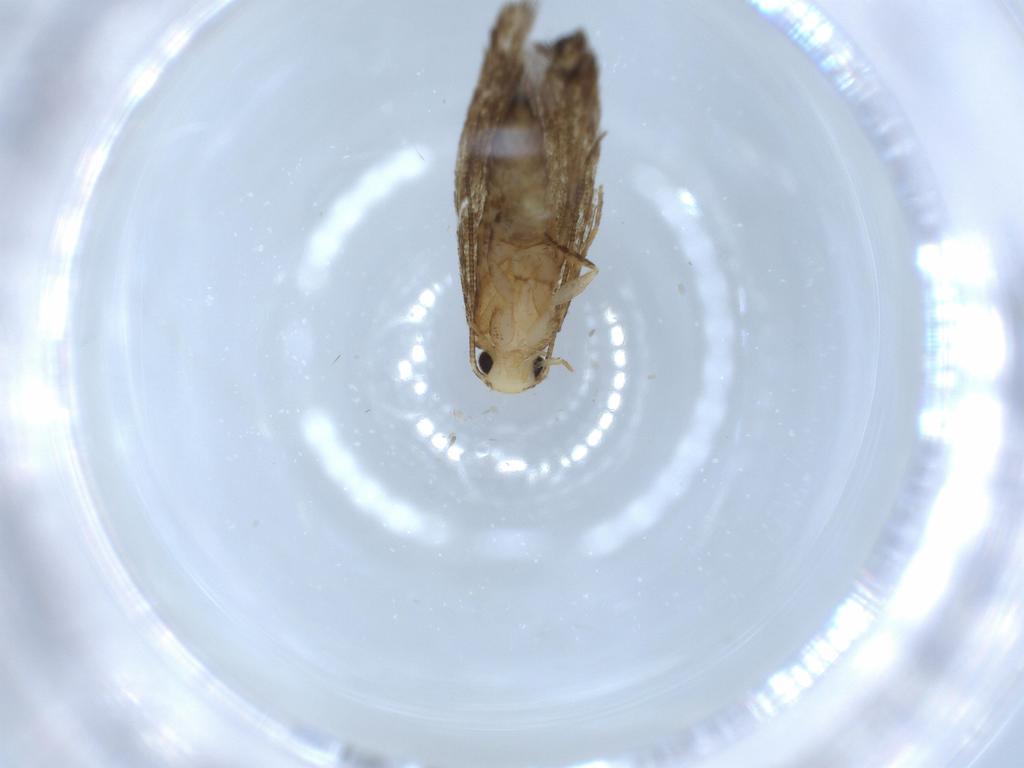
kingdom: Animalia
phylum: Arthropoda
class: Insecta
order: Lepidoptera
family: Tineidae
